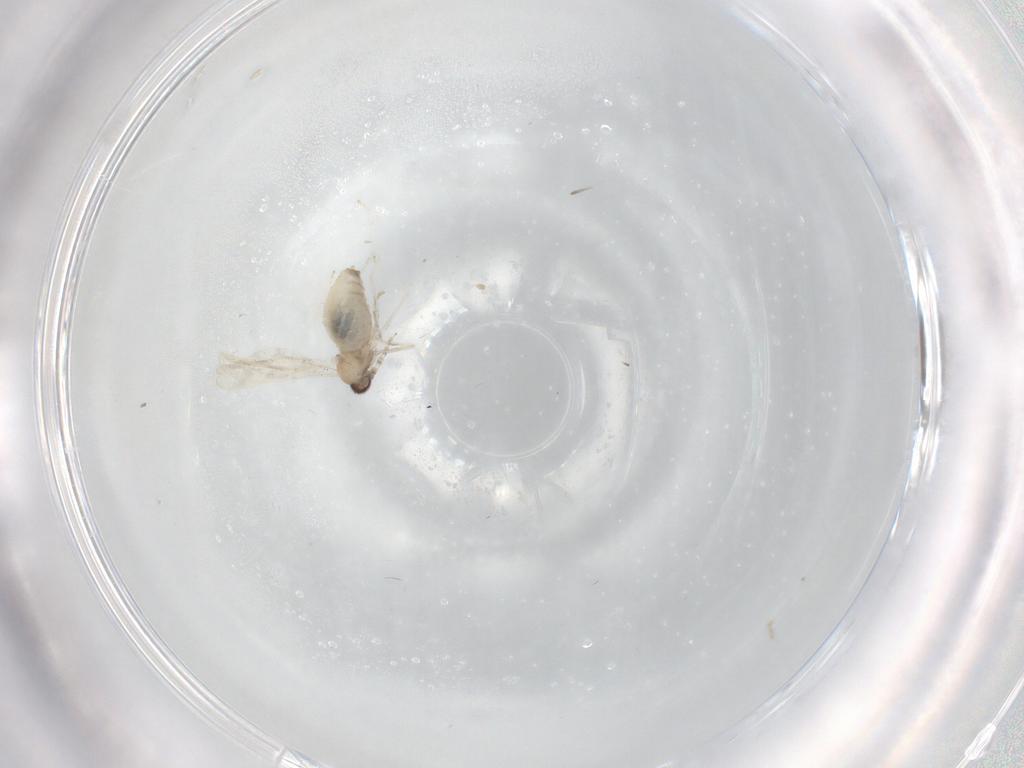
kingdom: Animalia
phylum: Arthropoda
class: Insecta
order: Diptera
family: Cecidomyiidae
